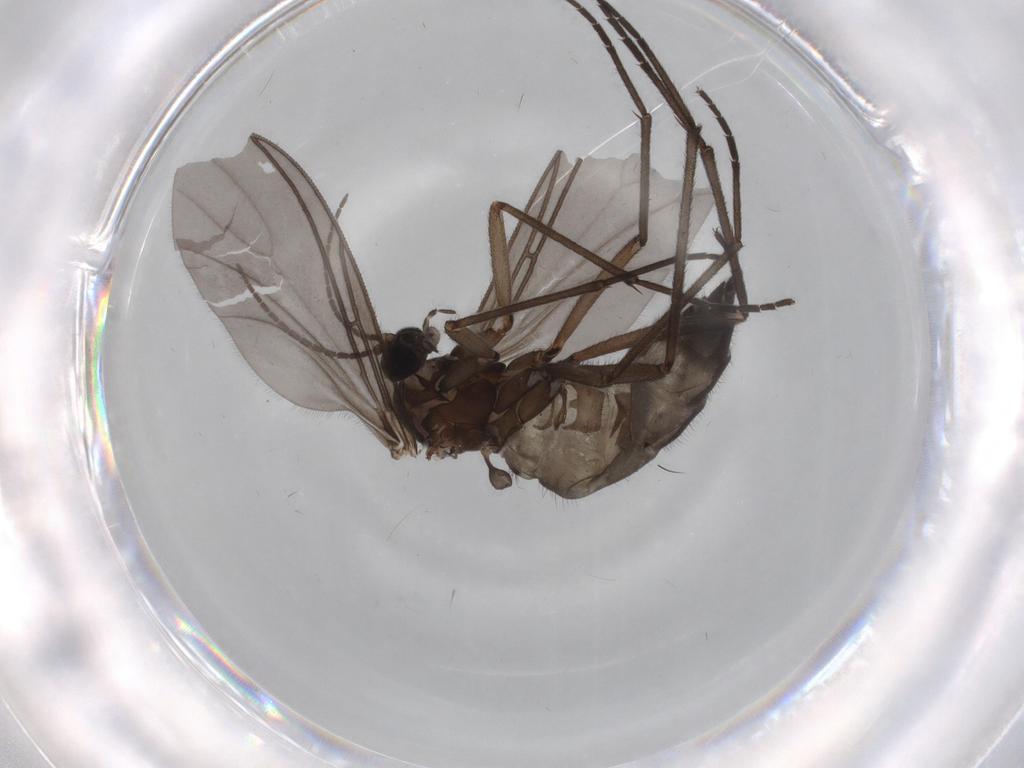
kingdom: Animalia
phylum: Arthropoda
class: Insecta
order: Diptera
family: Sciaridae
